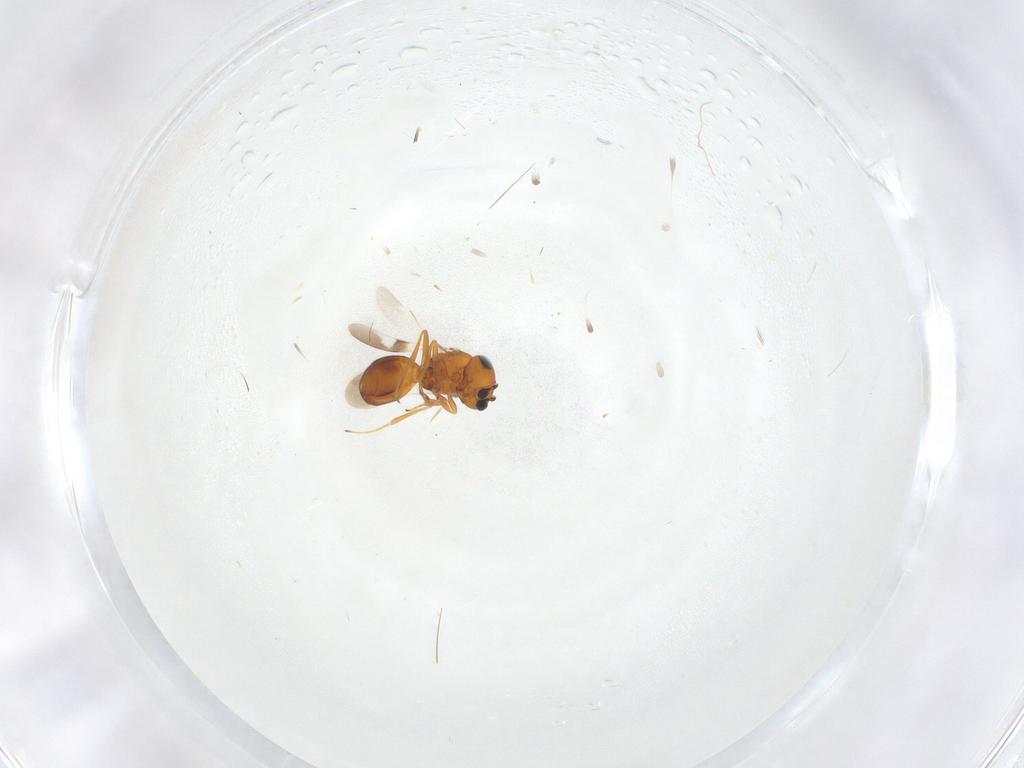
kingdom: Animalia
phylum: Arthropoda
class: Insecta
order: Hymenoptera
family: Scelionidae
